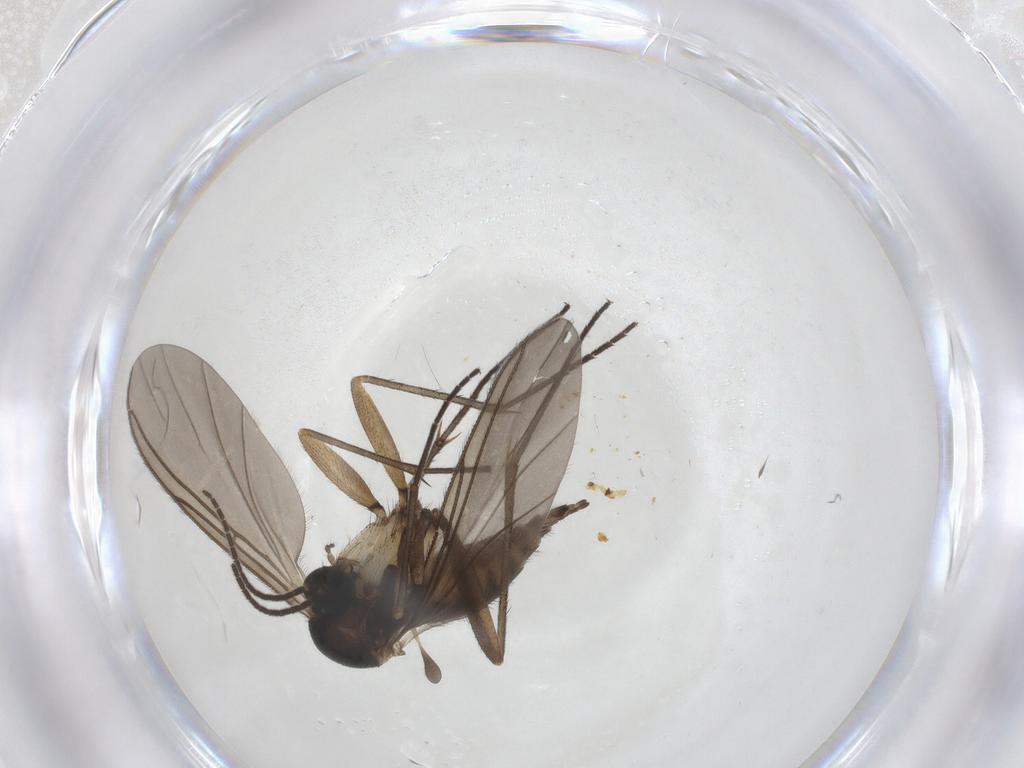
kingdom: Animalia
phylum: Arthropoda
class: Insecta
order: Diptera
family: Sciaridae
